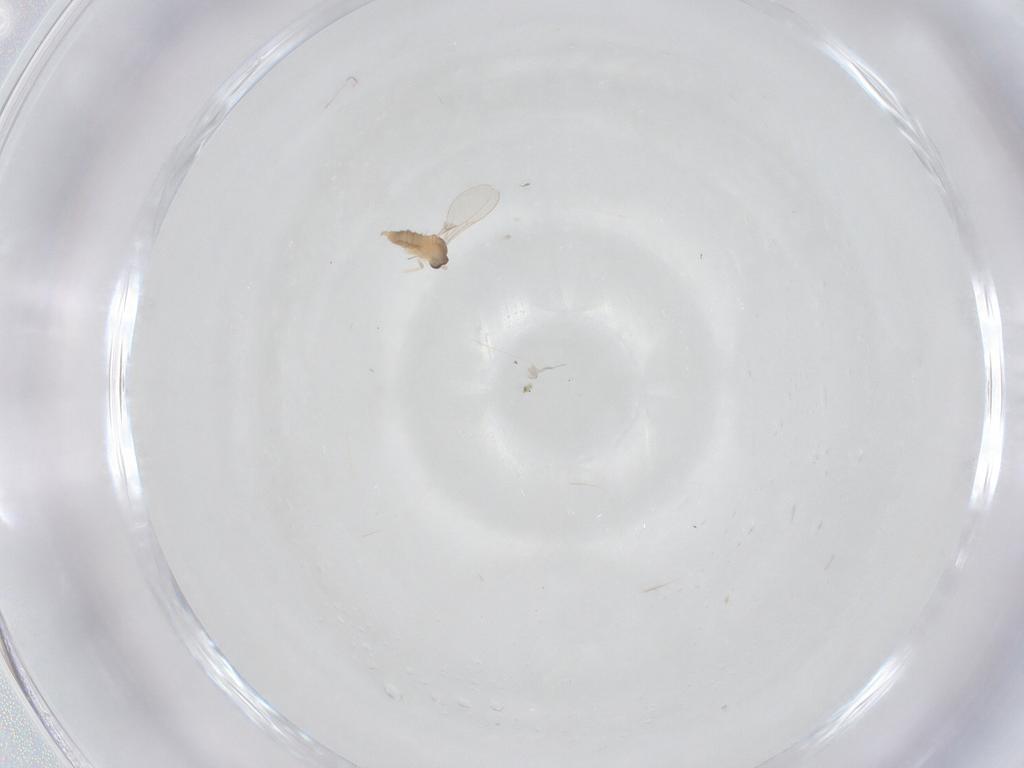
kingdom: Animalia
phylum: Arthropoda
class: Insecta
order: Diptera
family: Cecidomyiidae
